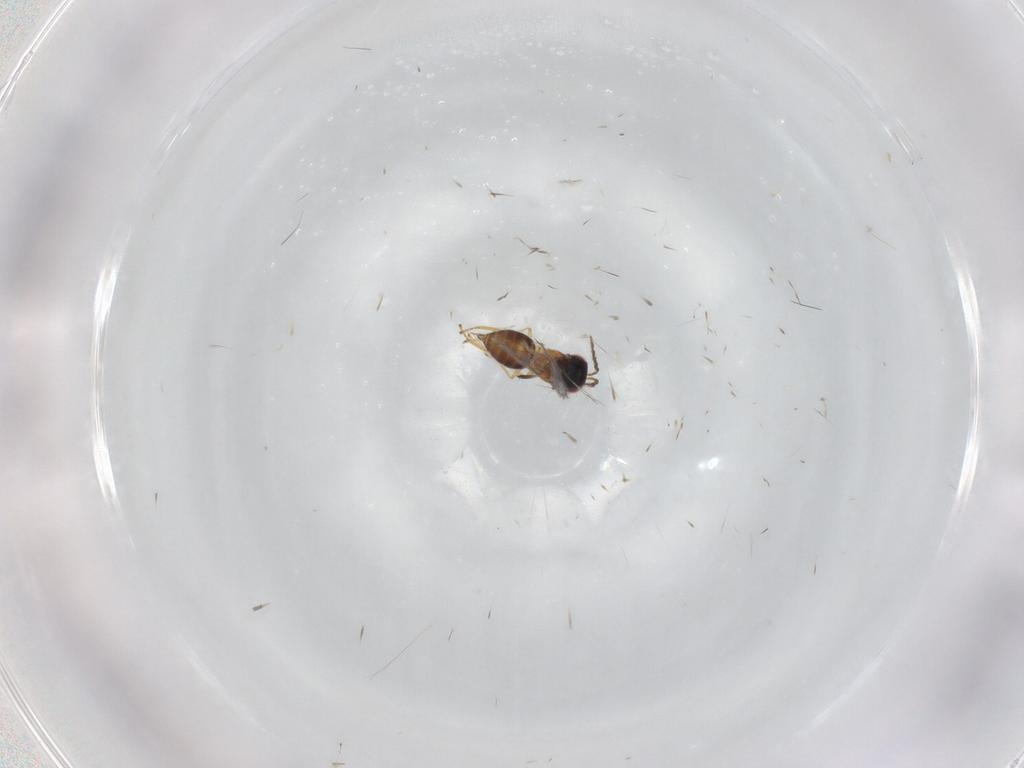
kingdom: Animalia
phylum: Arthropoda
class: Insecta
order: Hymenoptera
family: Eulophidae
